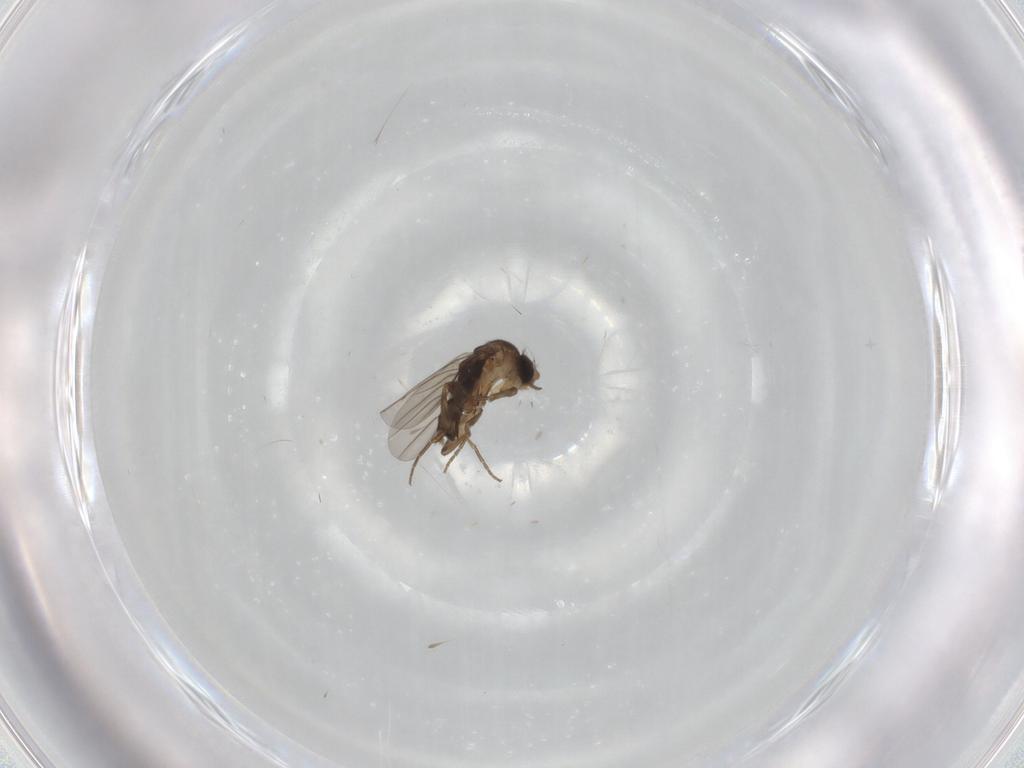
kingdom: Animalia
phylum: Arthropoda
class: Insecta
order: Diptera
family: Phoridae
